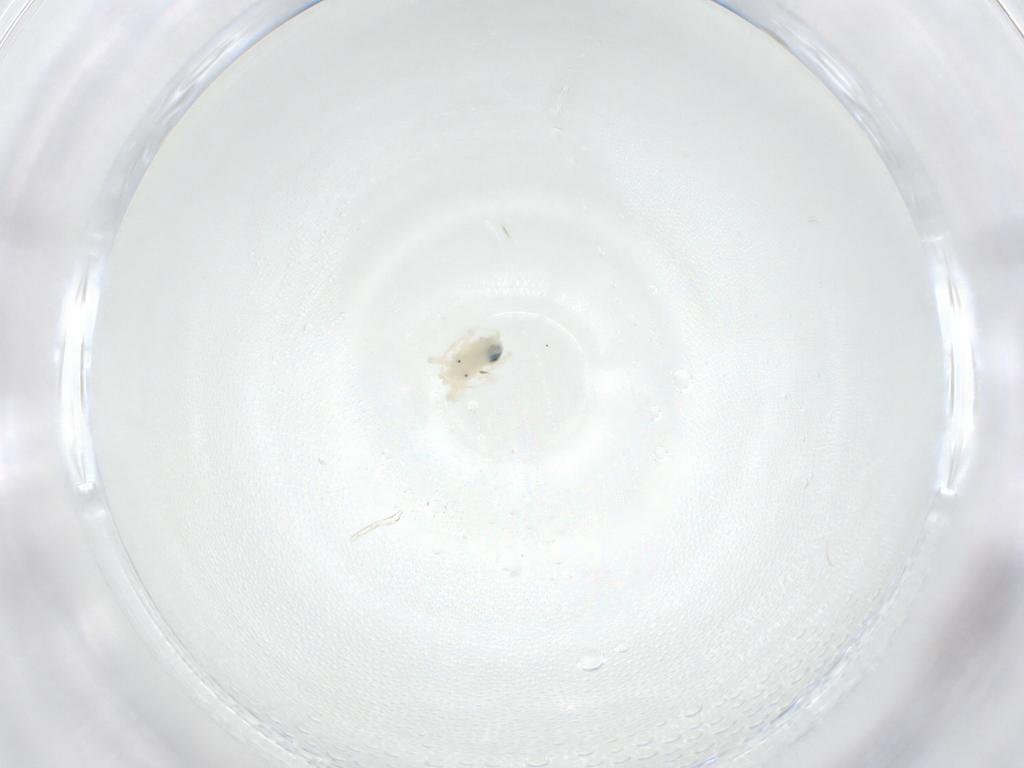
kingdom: Animalia
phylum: Arthropoda
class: Arachnida
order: Trombidiformes
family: Anystidae
